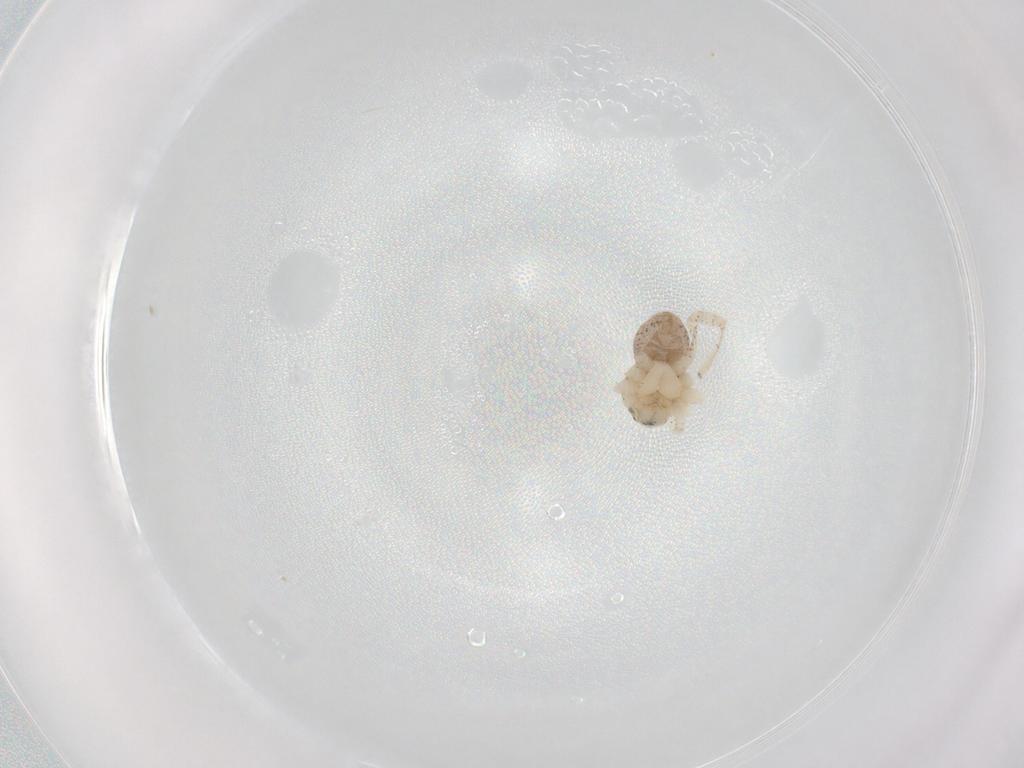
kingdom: Animalia
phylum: Arthropoda
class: Arachnida
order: Araneae
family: Philodromidae
